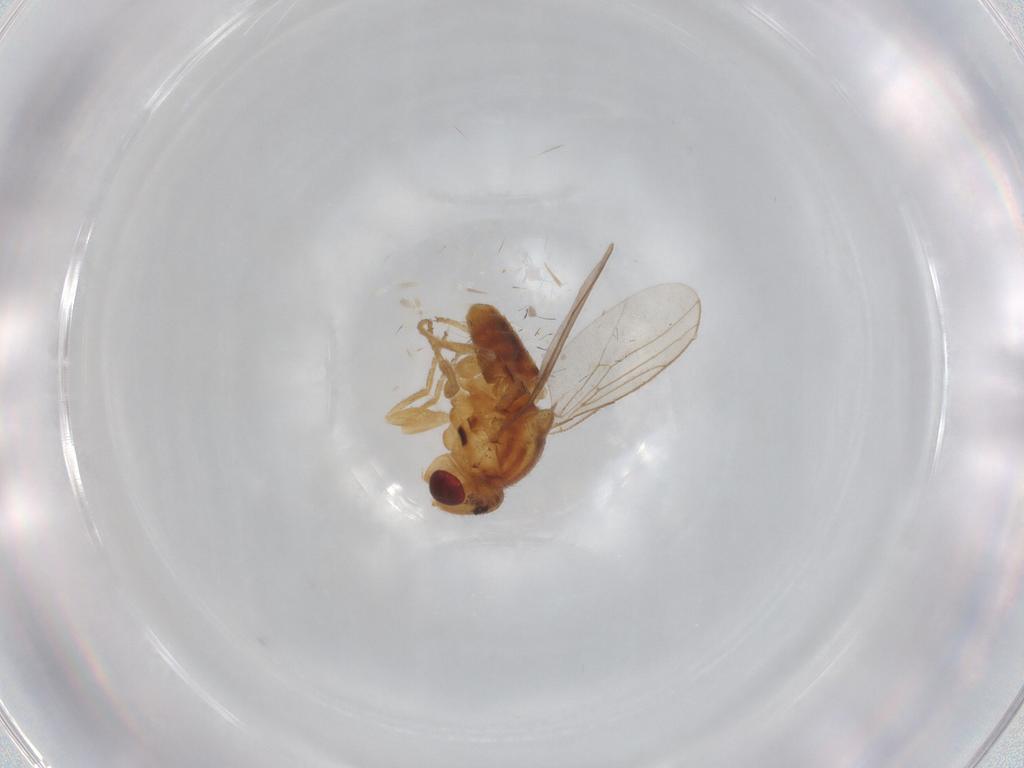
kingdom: Animalia
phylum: Arthropoda
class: Insecta
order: Diptera
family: Chloropidae
